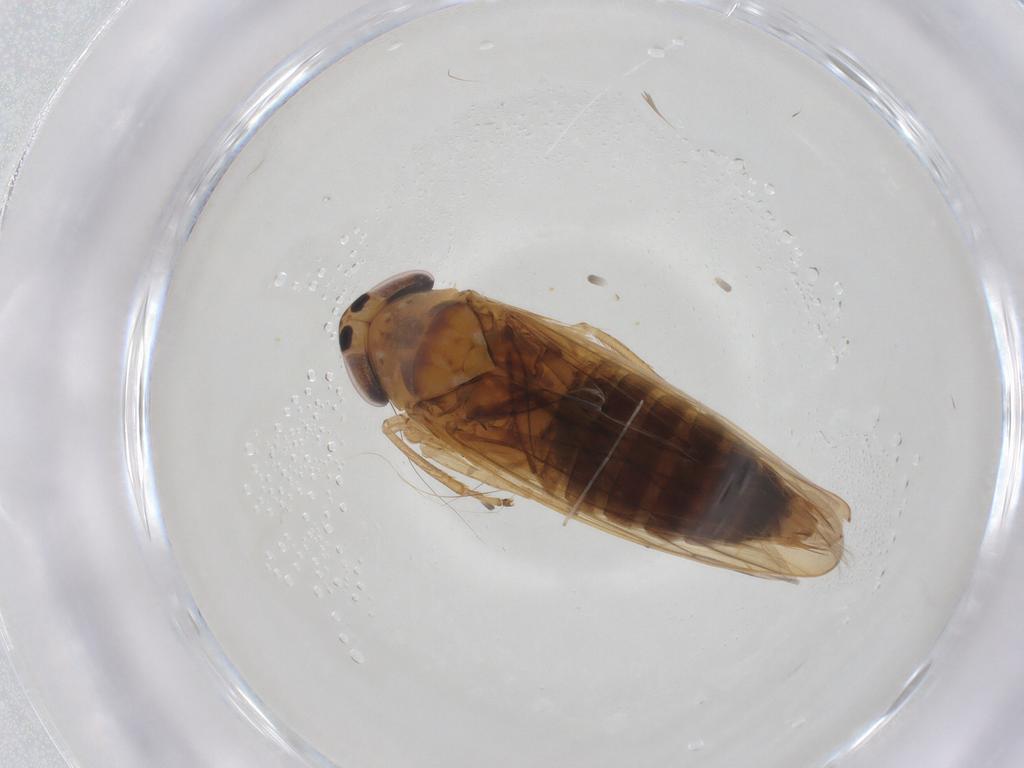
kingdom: Animalia
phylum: Arthropoda
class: Insecta
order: Hemiptera
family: Cicadellidae
